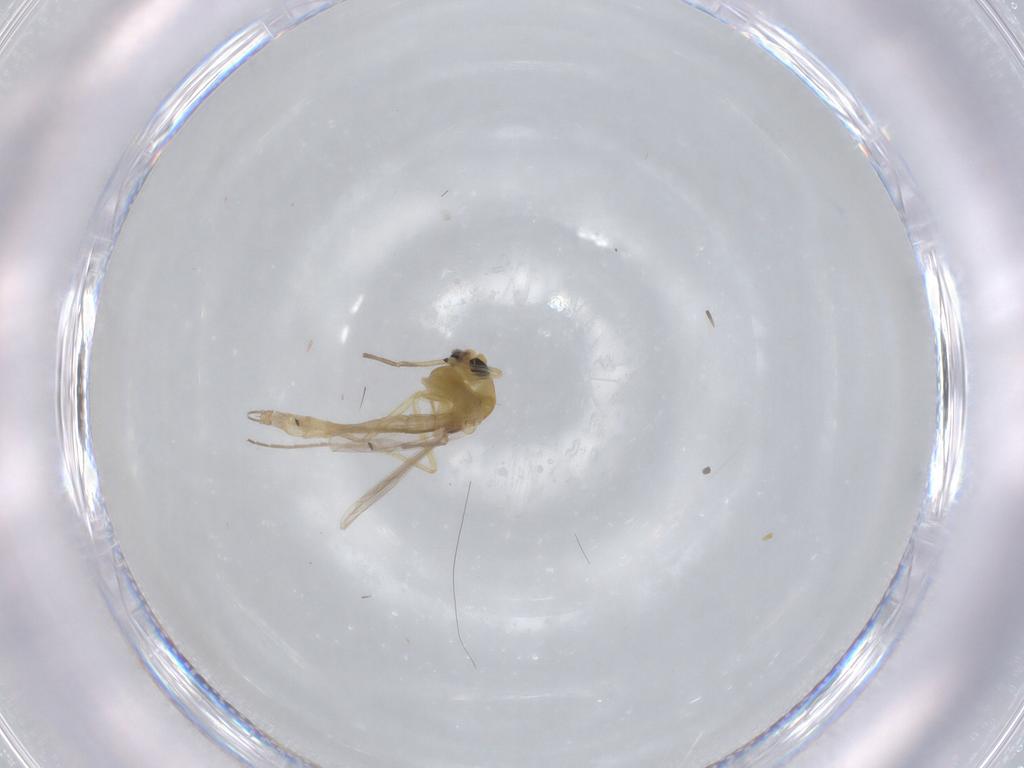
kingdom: Animalia
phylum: Arthropoda
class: Insecta
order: Diptera
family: Chironomidae
